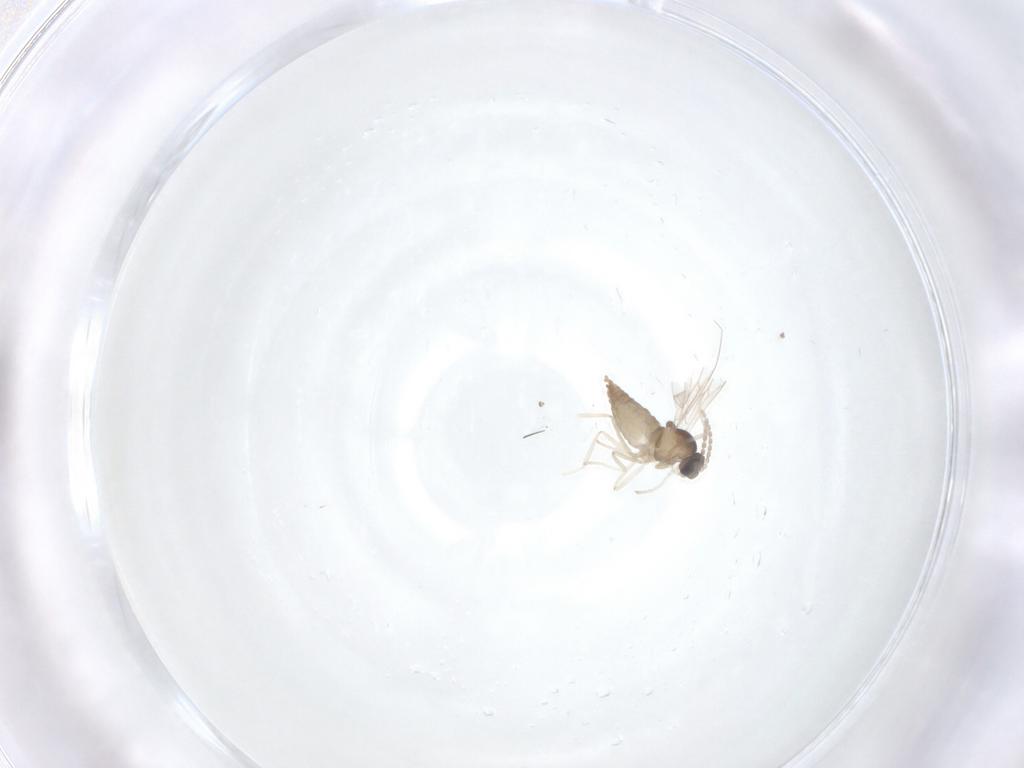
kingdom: Animalia
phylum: Arthropoda
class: Insecta
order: Diptera
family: Cecidomyiidae
